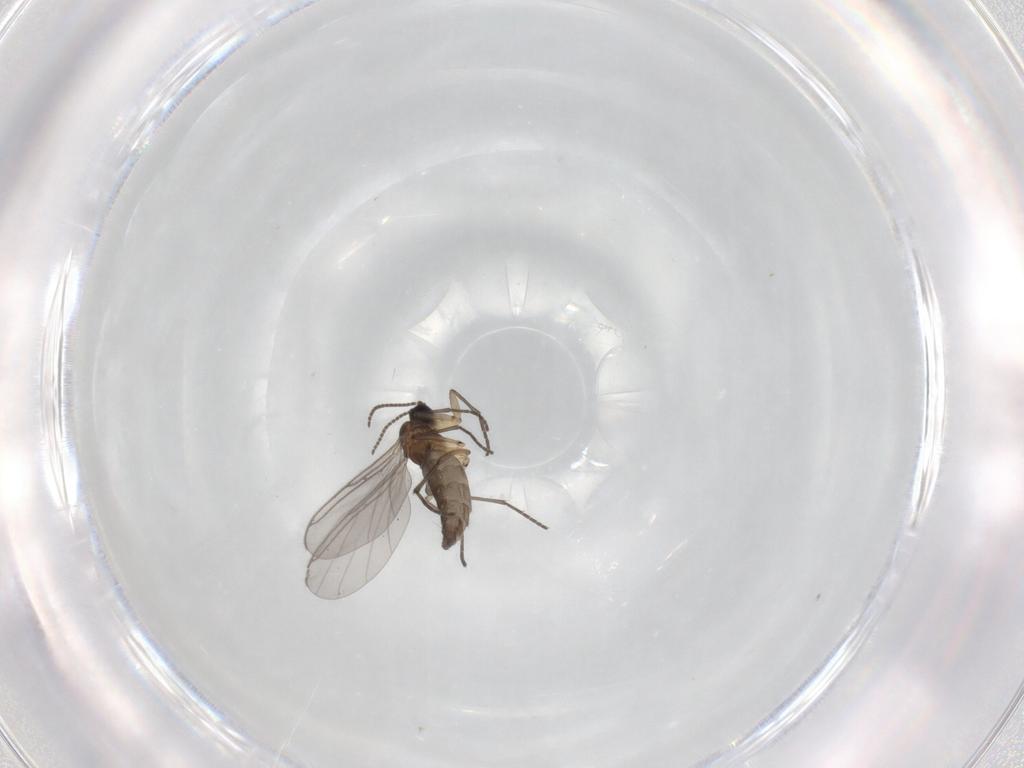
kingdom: Animalia
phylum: Arthropoda
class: Insecta
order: Diptera
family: Sciaridae
